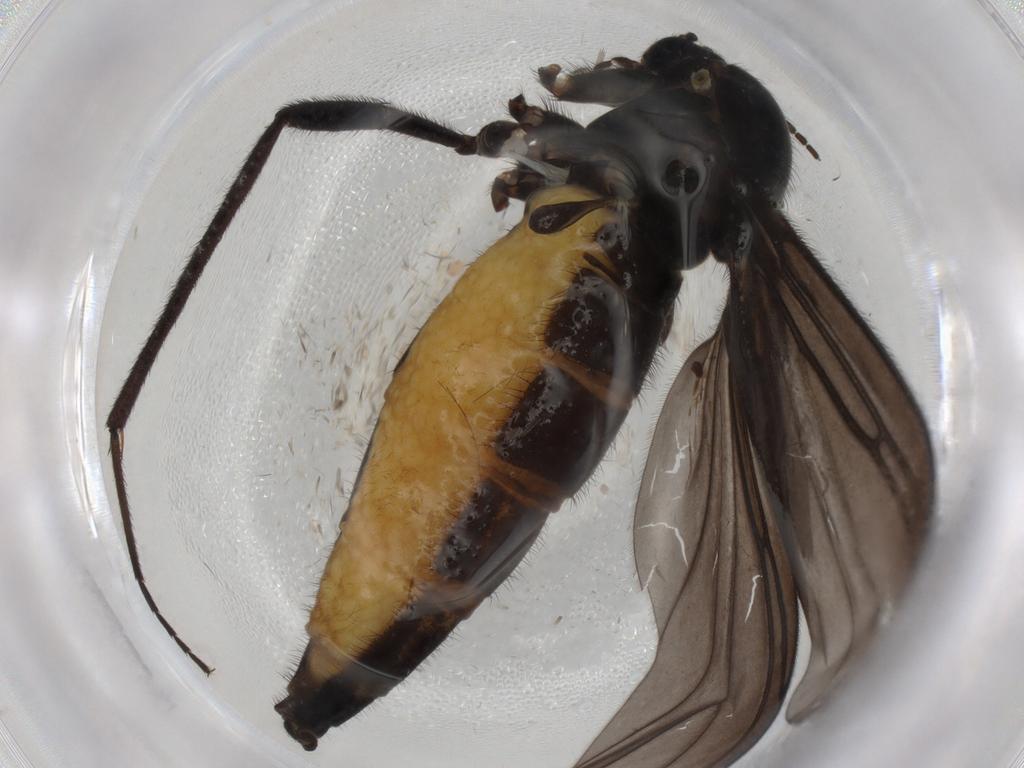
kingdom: Animalia
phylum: Arthropoda
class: Insecta
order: Diptera
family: Sciaridae
